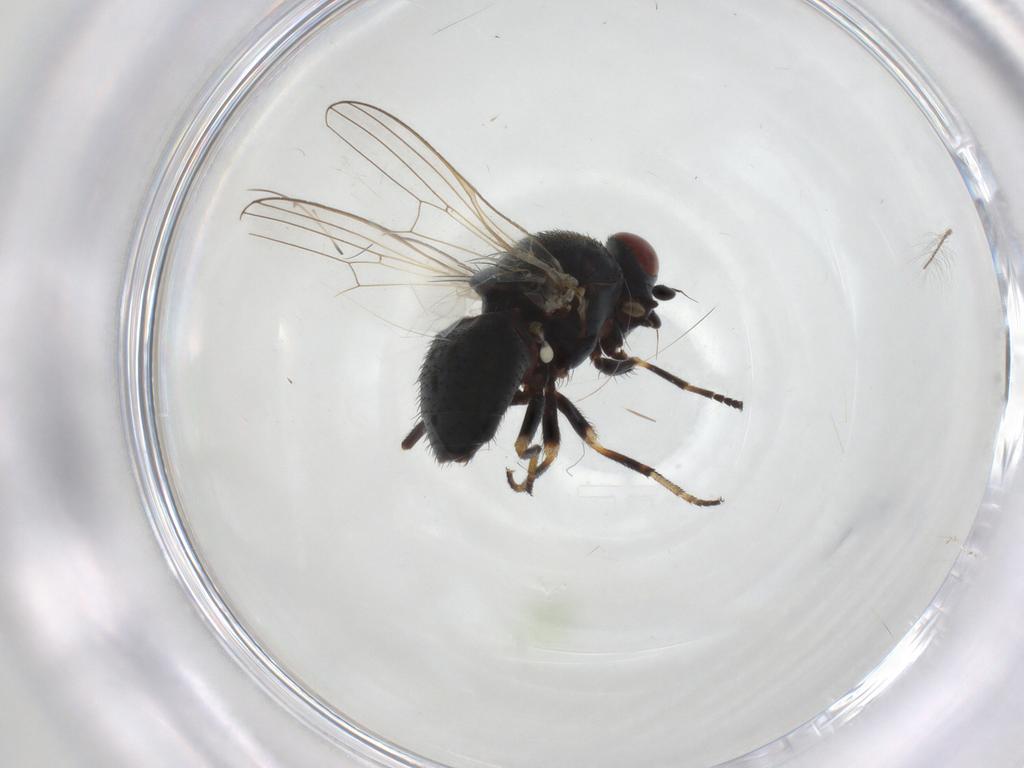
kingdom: Animalia
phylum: Arthropoda
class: Insecta
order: Diptera
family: Chamaemyiidae
